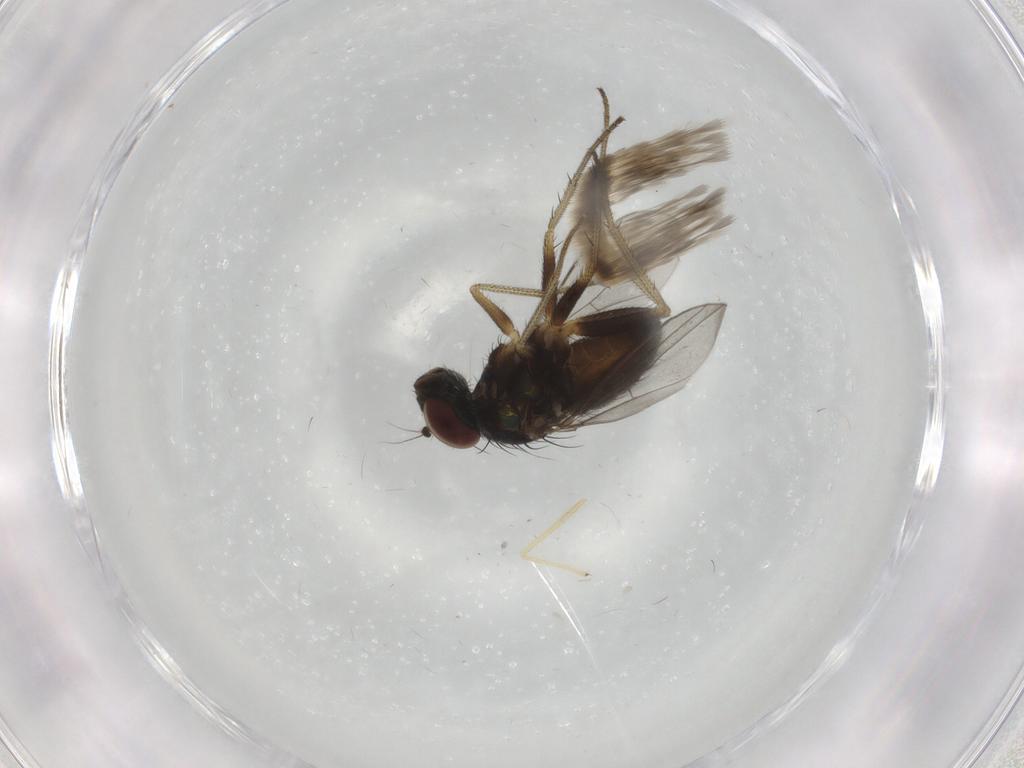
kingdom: Animalia
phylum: Arthropoda
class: Insecta
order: Diptera
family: Dolichopodidae
